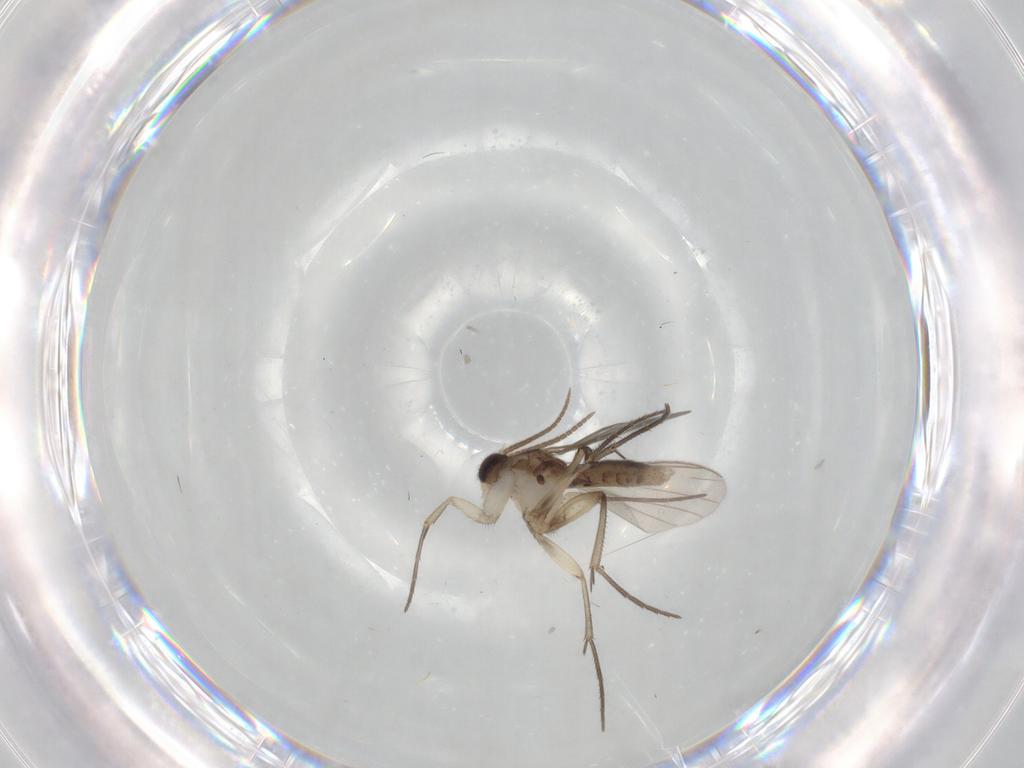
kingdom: Animalia
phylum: Arthropoda
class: Insecta
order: Diptera
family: Mycetophilidae
